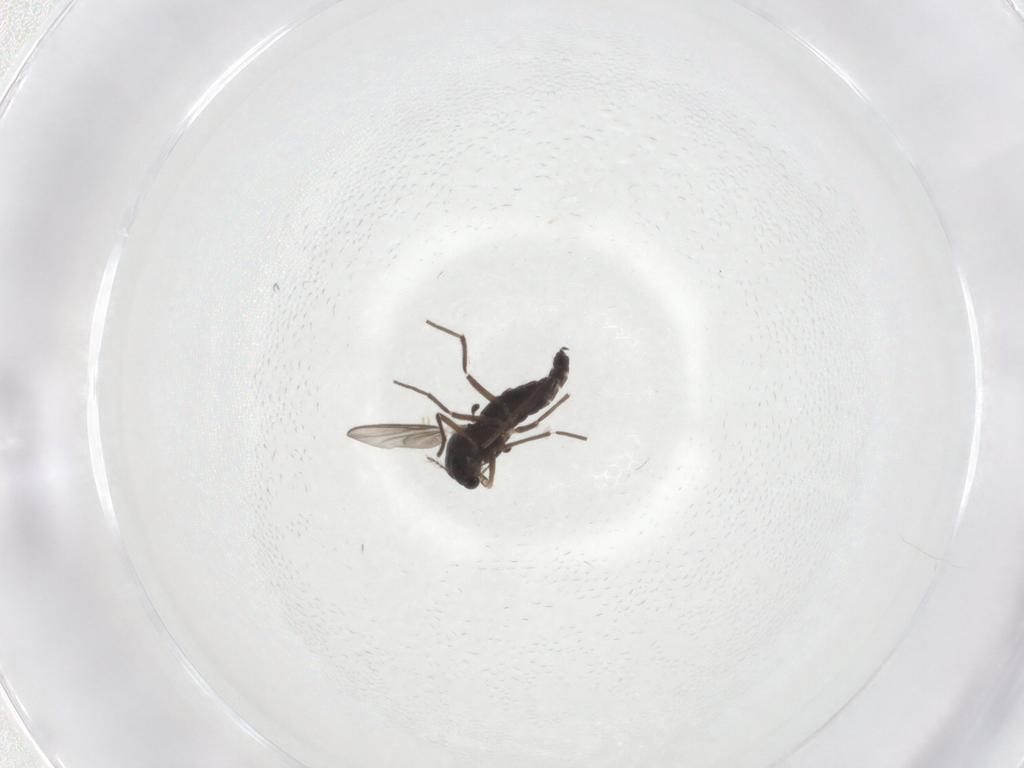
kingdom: Animalia
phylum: Arthropoda
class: Insecta
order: Diptera
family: Chironomidae
